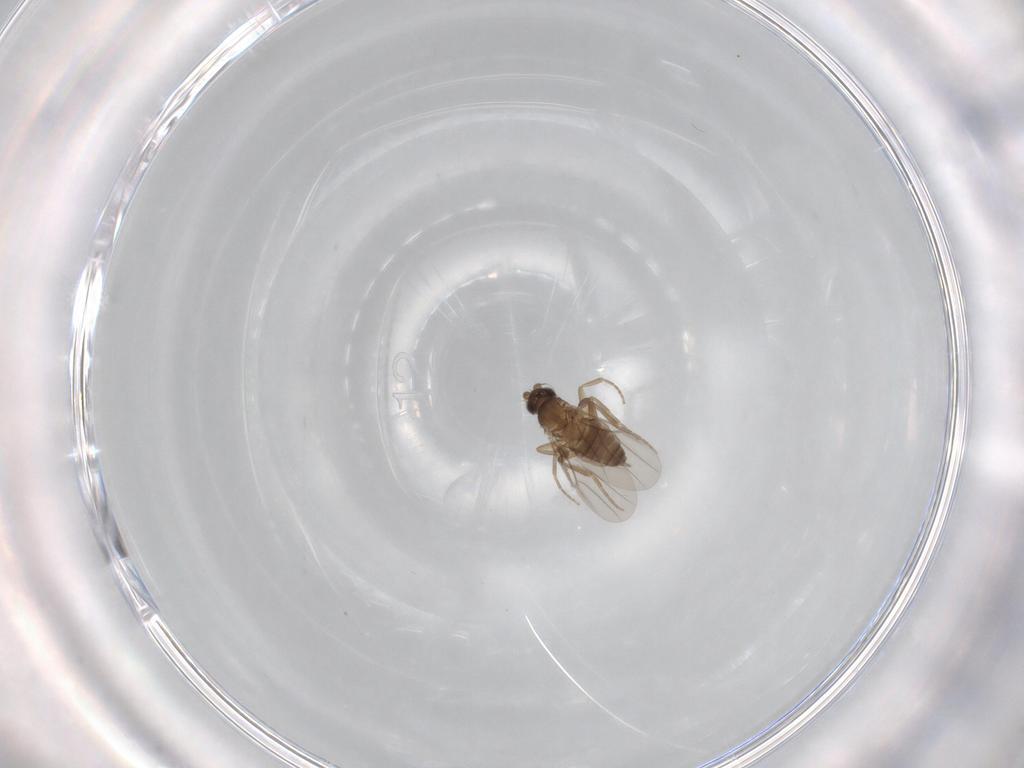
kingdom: Animalia
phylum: Arthropoda
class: Insecta
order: Diptera
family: Phoridae
